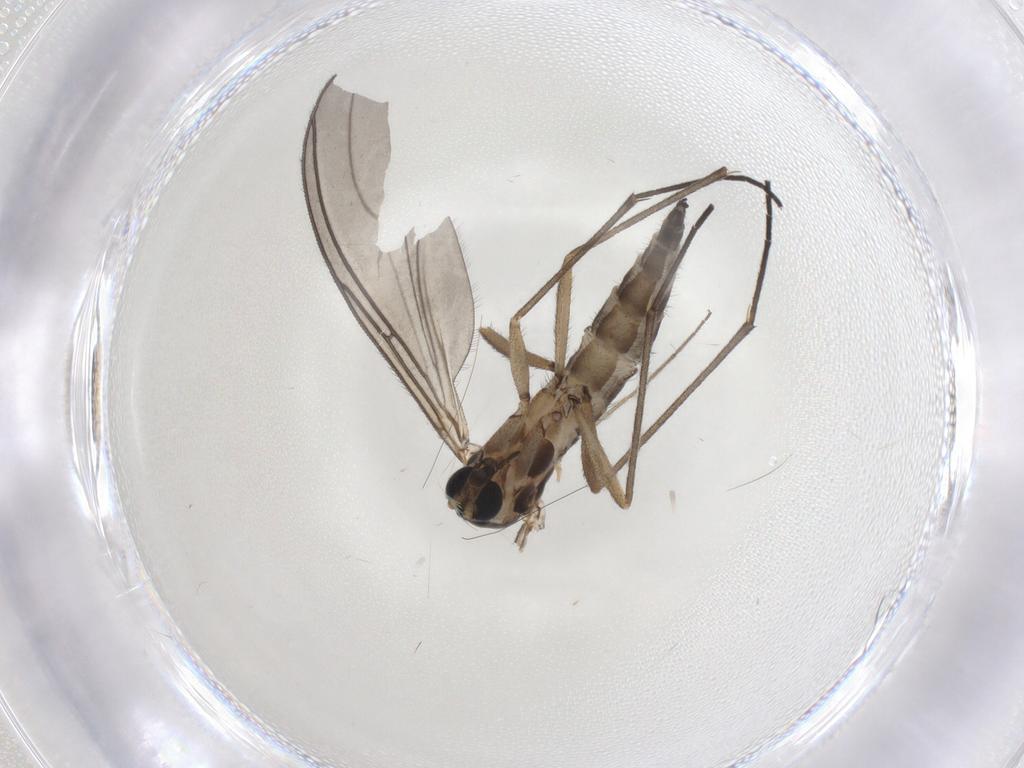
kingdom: Animalia
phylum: Arthropoda
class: Insecta
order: Diptera
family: Sciaridae
